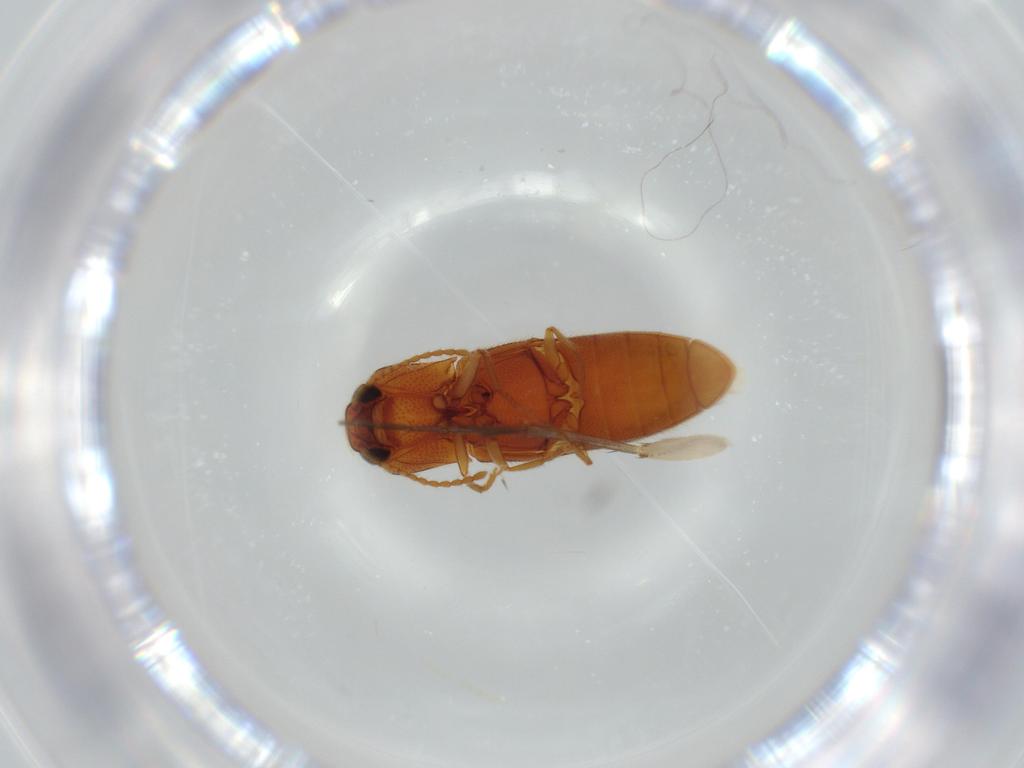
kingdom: Animalia
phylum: Arthropoda
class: Insecta
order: Coleoptera
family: Elateridae
